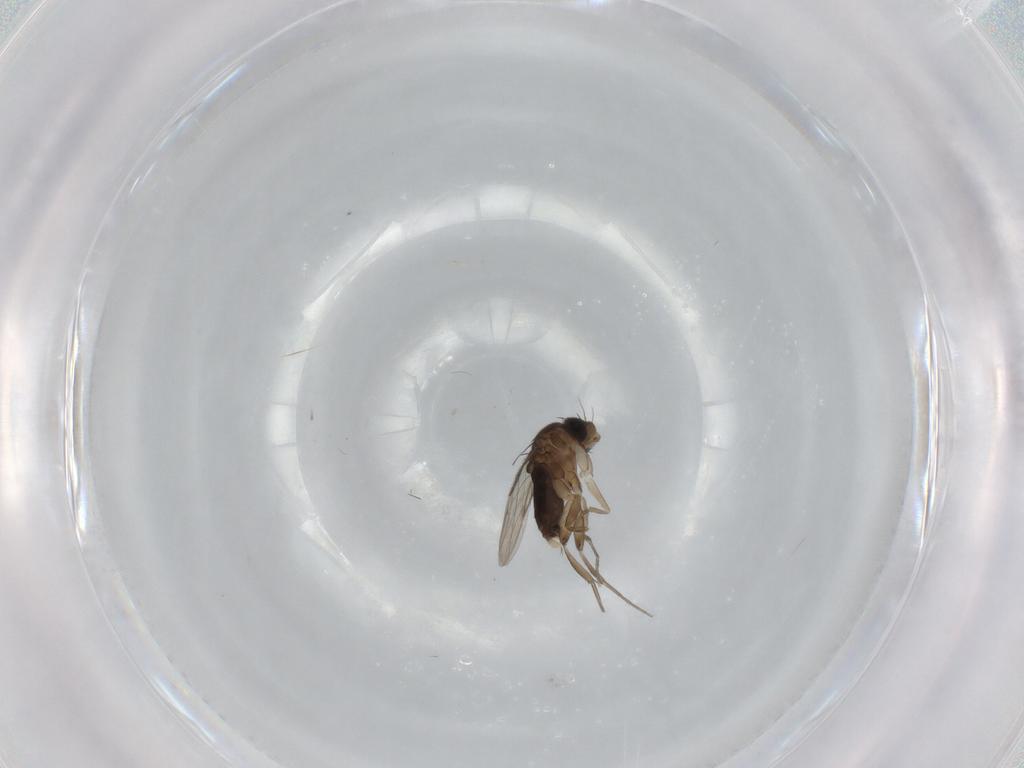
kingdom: Animalia
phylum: Arthropoda
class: Insecta
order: Diptera
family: Phoridae
